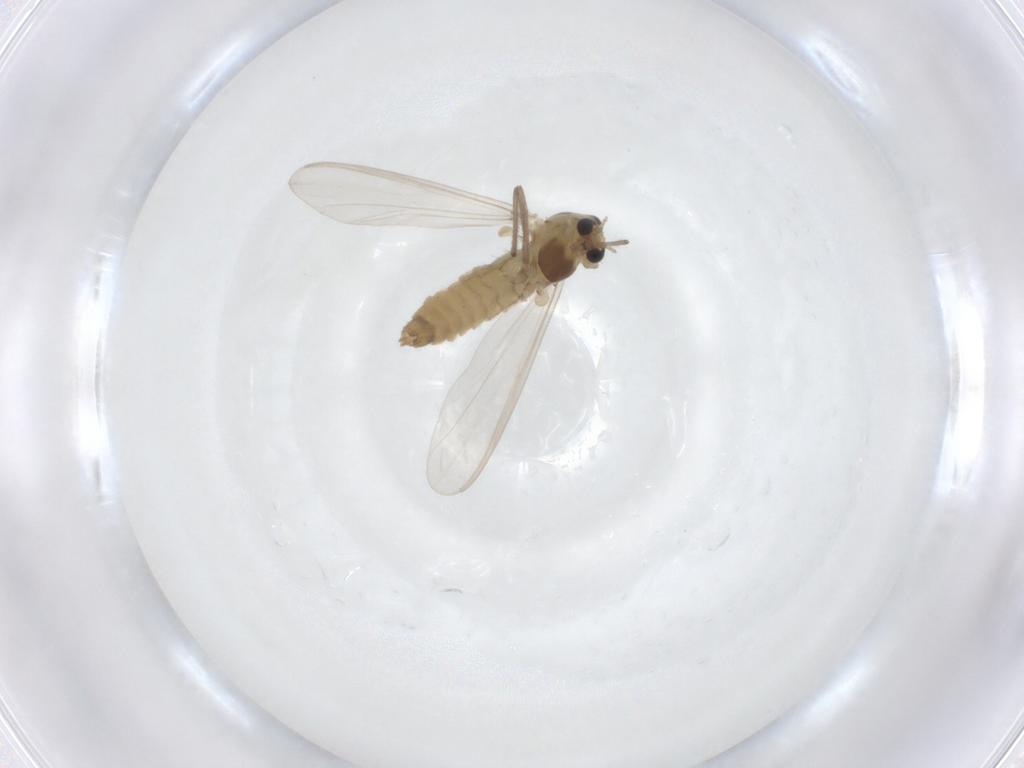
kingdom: Animalia
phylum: Arthropoda
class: Insecta
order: Diptera
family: Chironomidae
